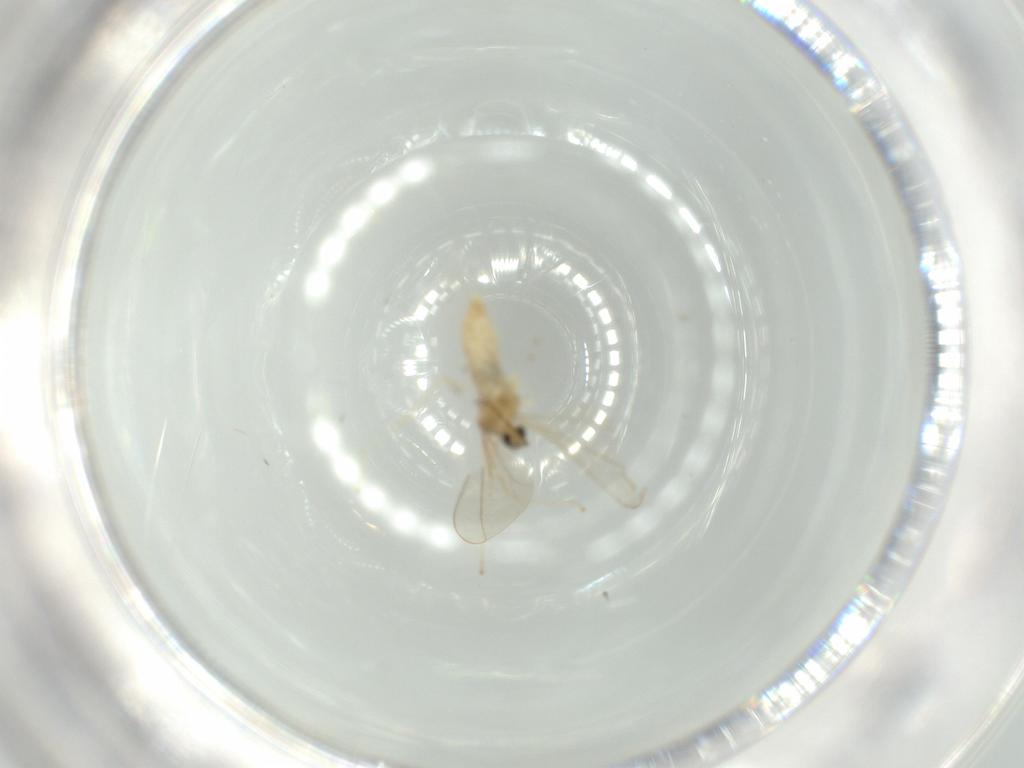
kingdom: Animalia
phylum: Arthropoda
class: Insecta
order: Diptera
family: Cecidomyiidae
